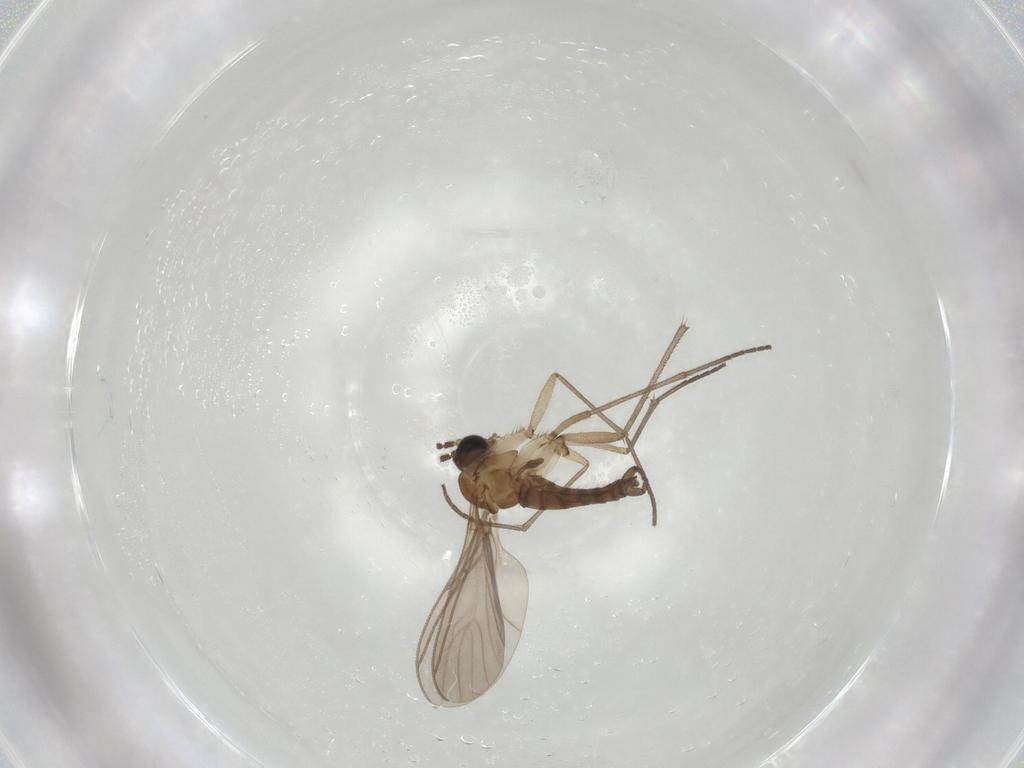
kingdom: Animalia
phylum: Arthropoda
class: Insecta
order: Diptera
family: Sciaridae
